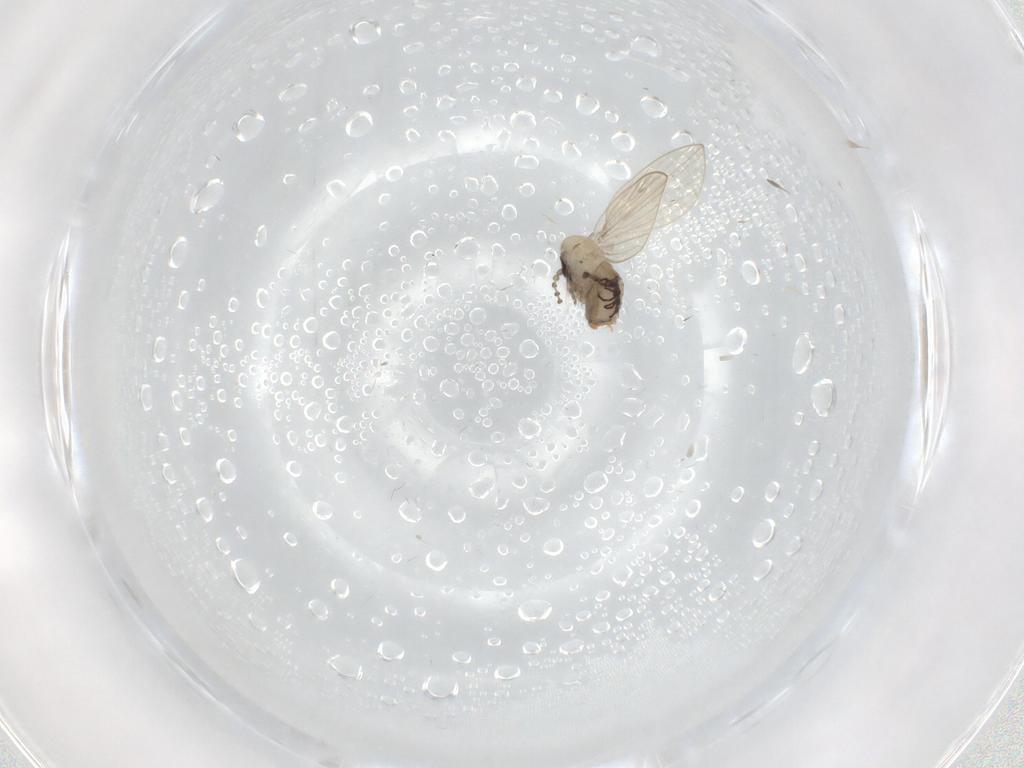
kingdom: Animalia
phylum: Arthropoda
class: Insecta
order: Diptera
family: Psychodidae
